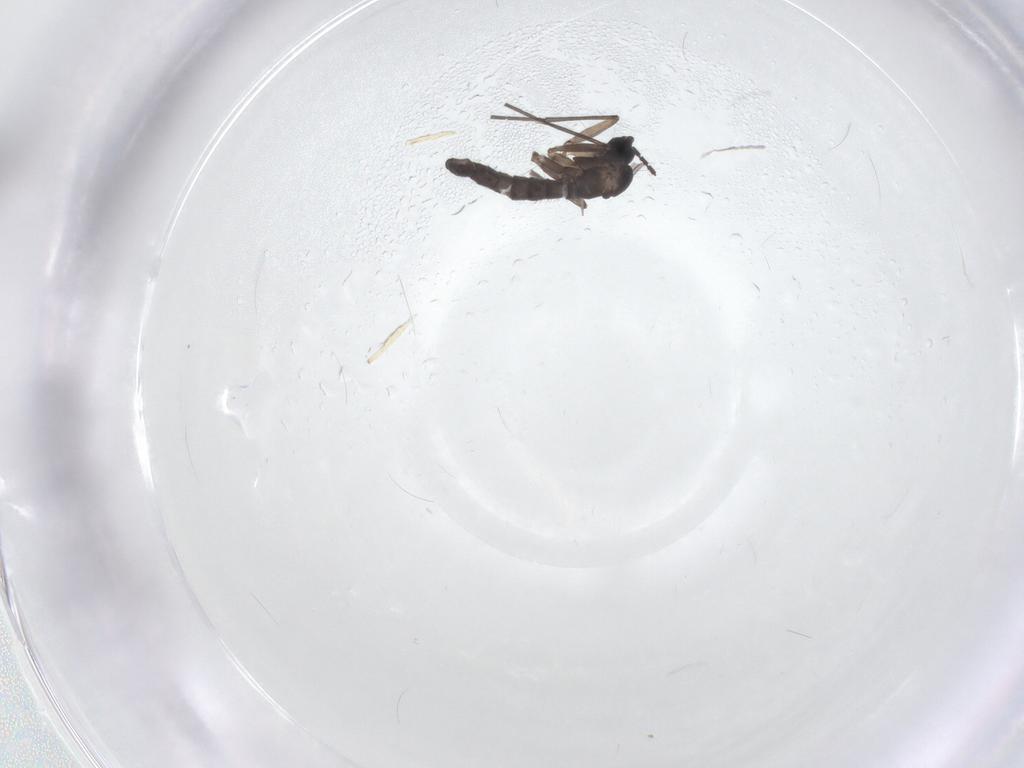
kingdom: Animalia
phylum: Arthropoda
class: Insecta
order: Diptera
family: Sciaridae
